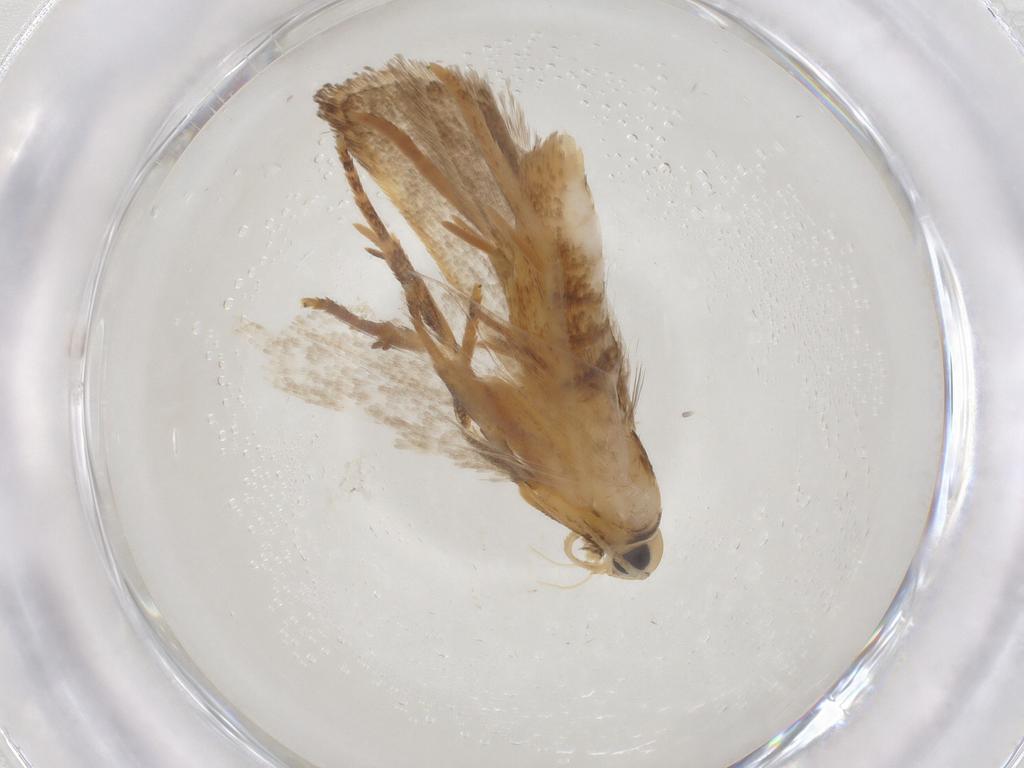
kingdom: Animalia
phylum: Arthropoda
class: Insecta
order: Lepidoptera
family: Gelechiidae
